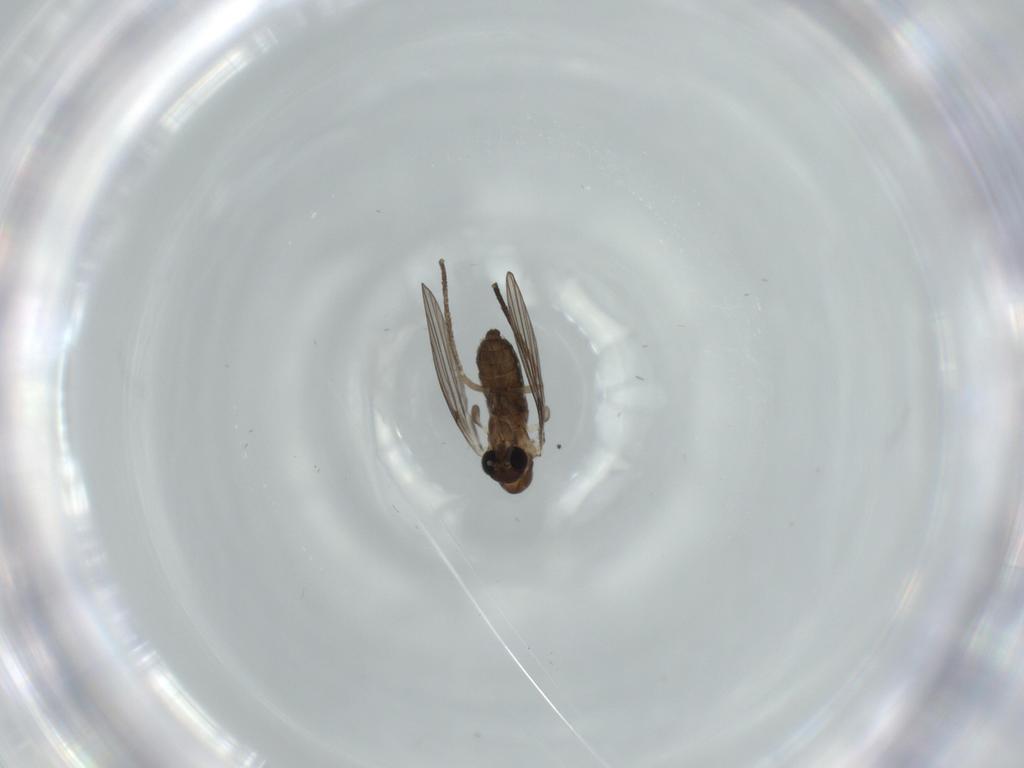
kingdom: Animalia
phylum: Arthropoda
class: Insecta
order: Diptera
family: Psychodidae
